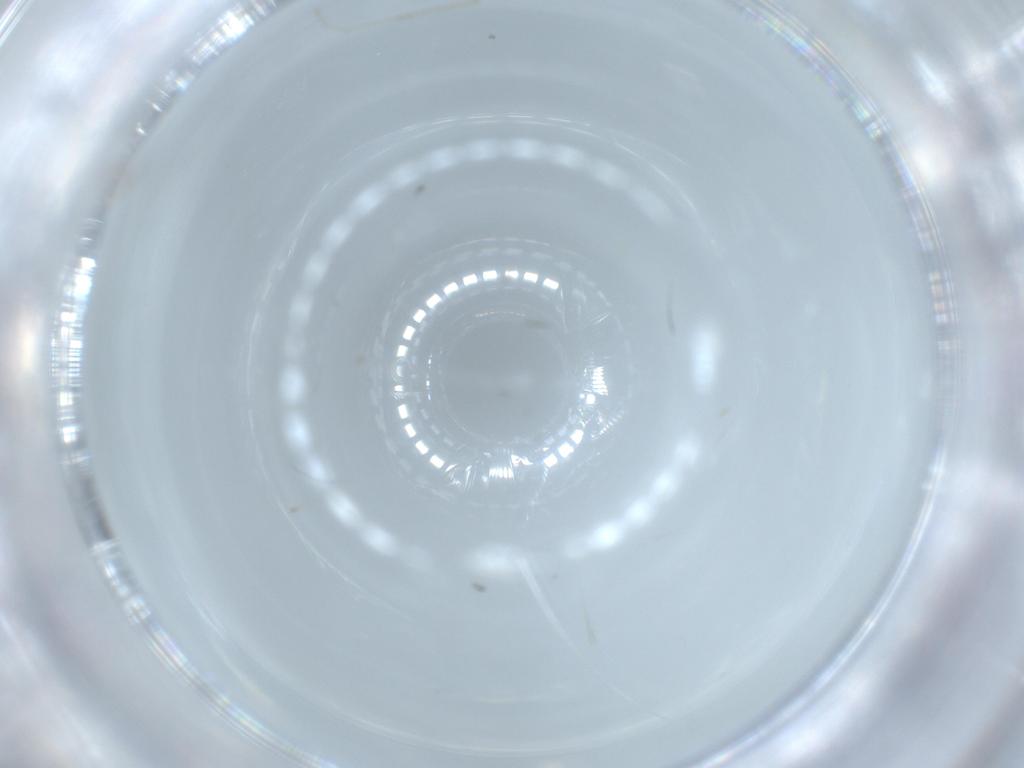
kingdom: Animalia
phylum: Arthropoda
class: Insecta
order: Diptera
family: Cecidomyiidae
